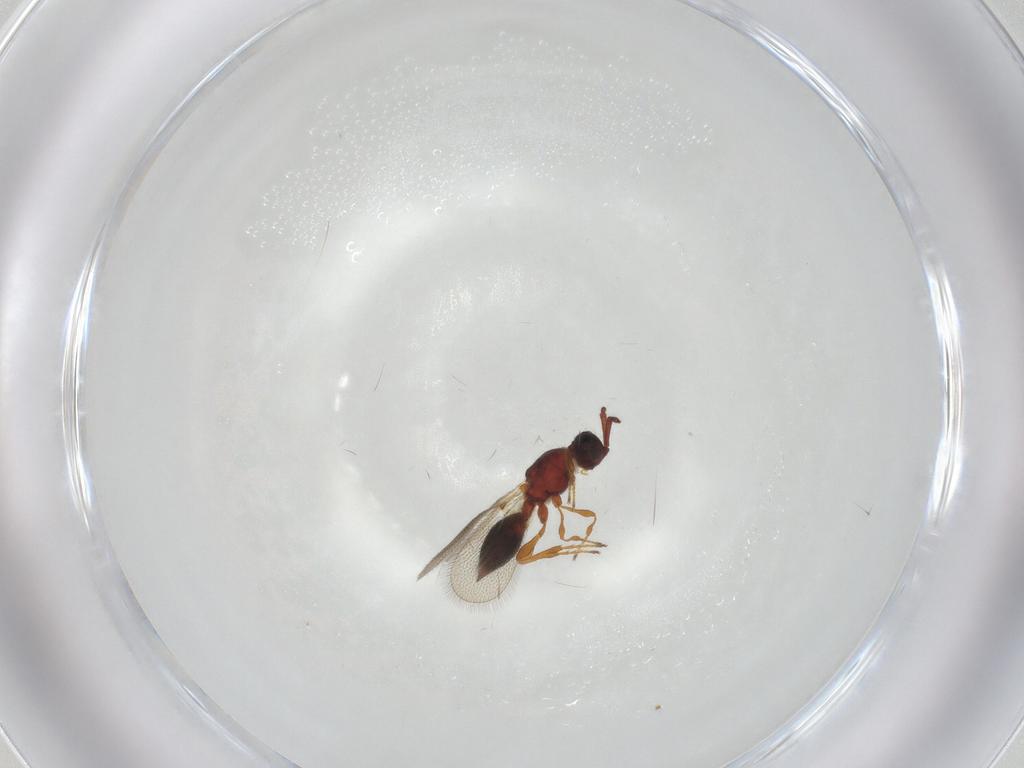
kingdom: Animalia
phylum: Arthropoda
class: Insecta
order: Hymenoptera
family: Diapriidae
